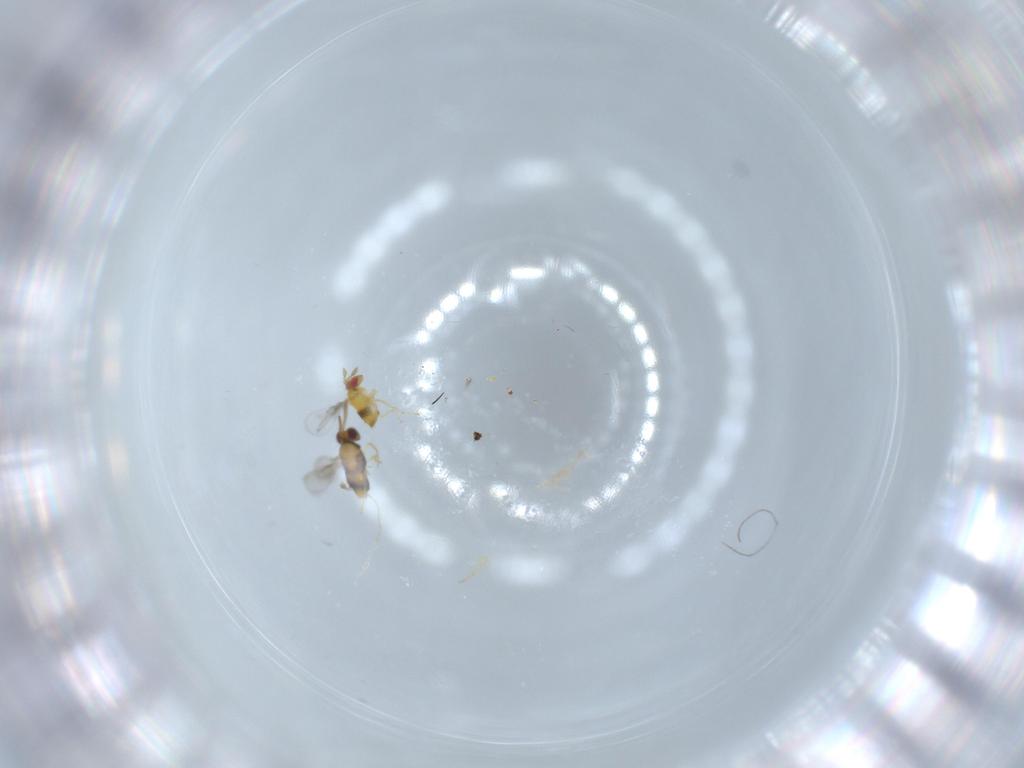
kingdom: Animalia
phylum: Arthropoda
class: Insecta
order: Hymenoptera
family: Aphelinidae
